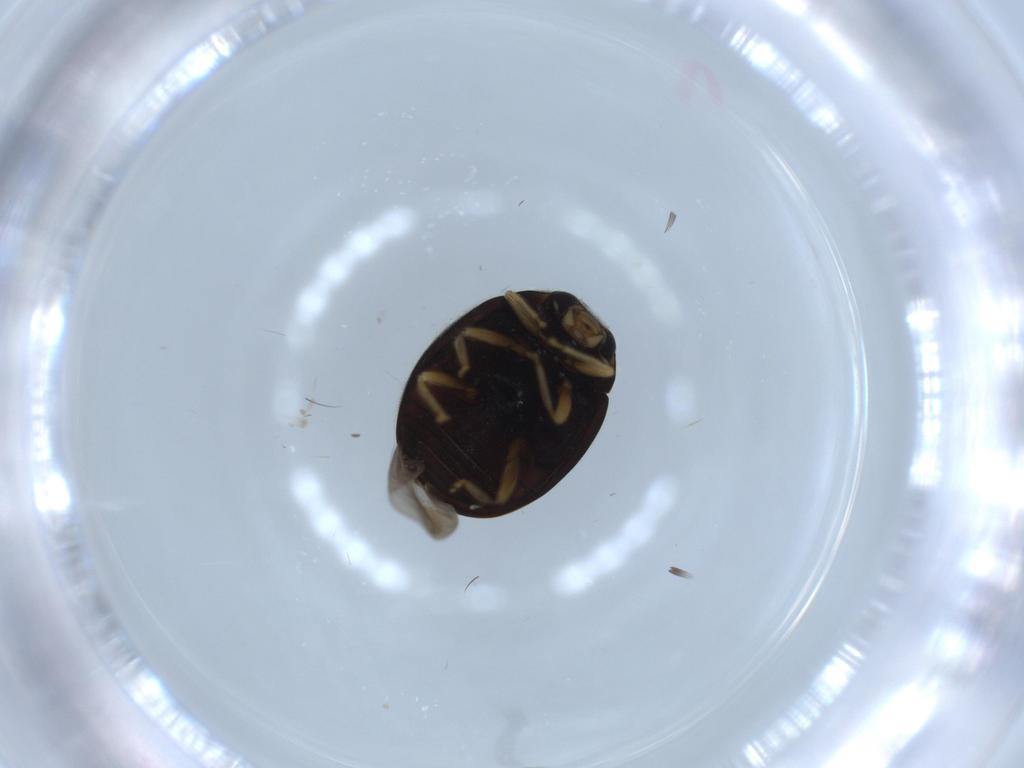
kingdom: Animalia
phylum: Arthropoda
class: Insecta
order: Coleoptera
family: Coccinellidae
